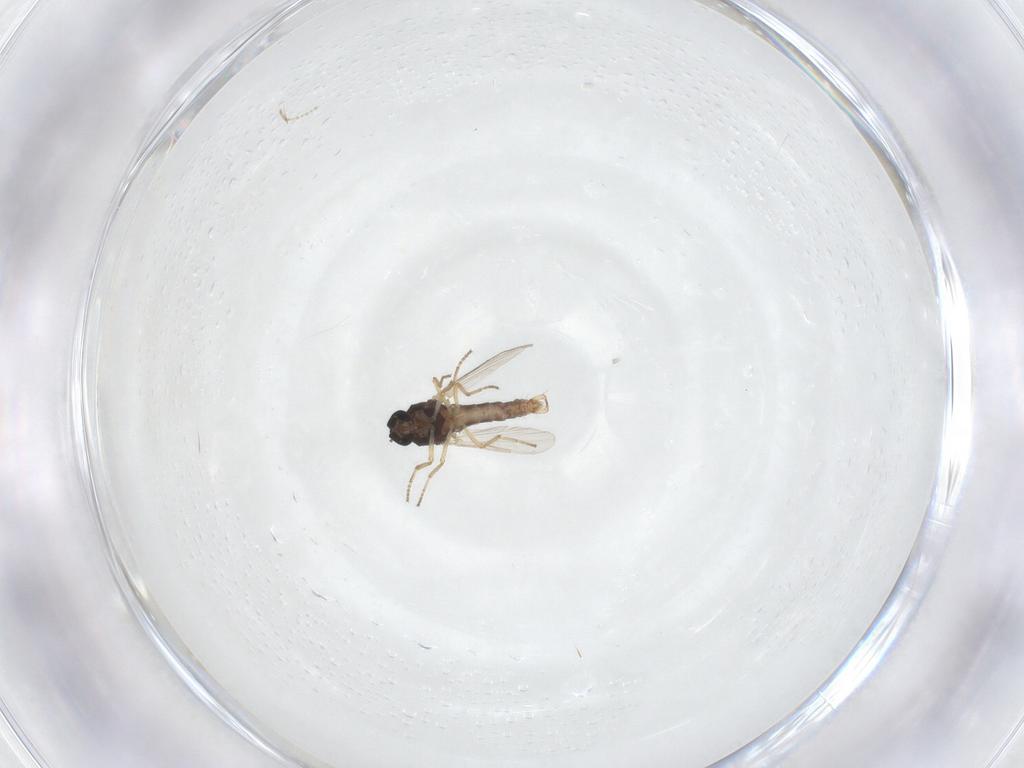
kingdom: Animalia
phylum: Arthropoda
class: Insecta
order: Diptera
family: Ceratopogonidae
